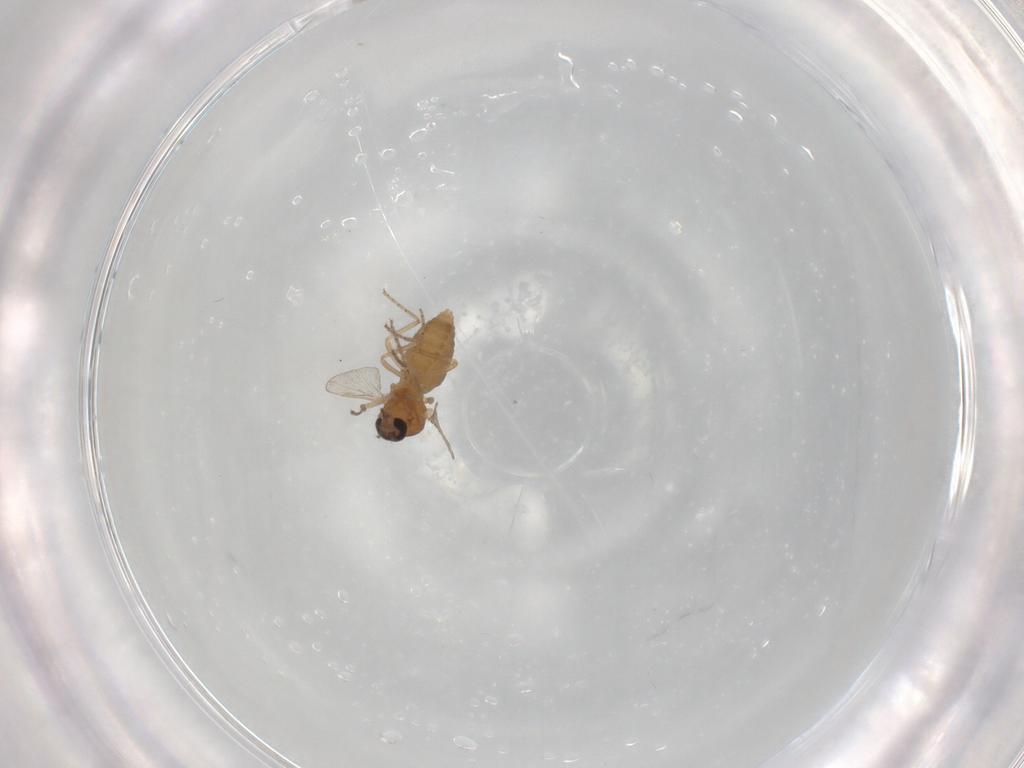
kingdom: Animalia
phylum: Arthropoda
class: Insecta
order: Diptera
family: Ceratopogonidae
